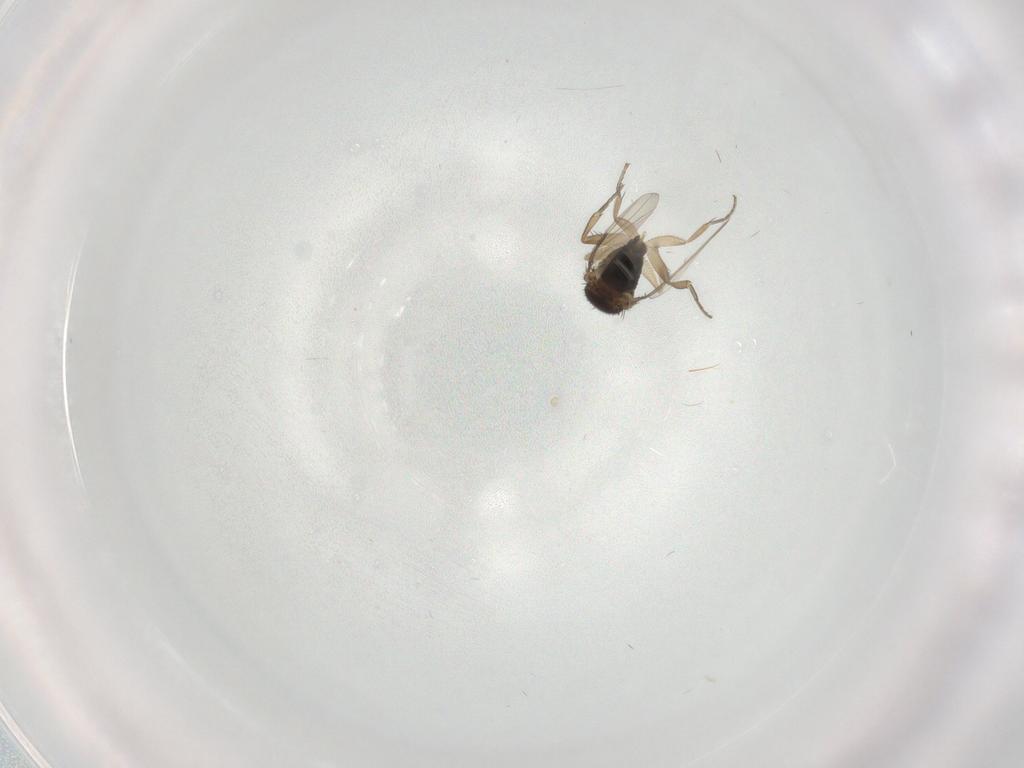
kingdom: Animalia
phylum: Arthropoda
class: Insecta
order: Diptera
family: Phoridae
